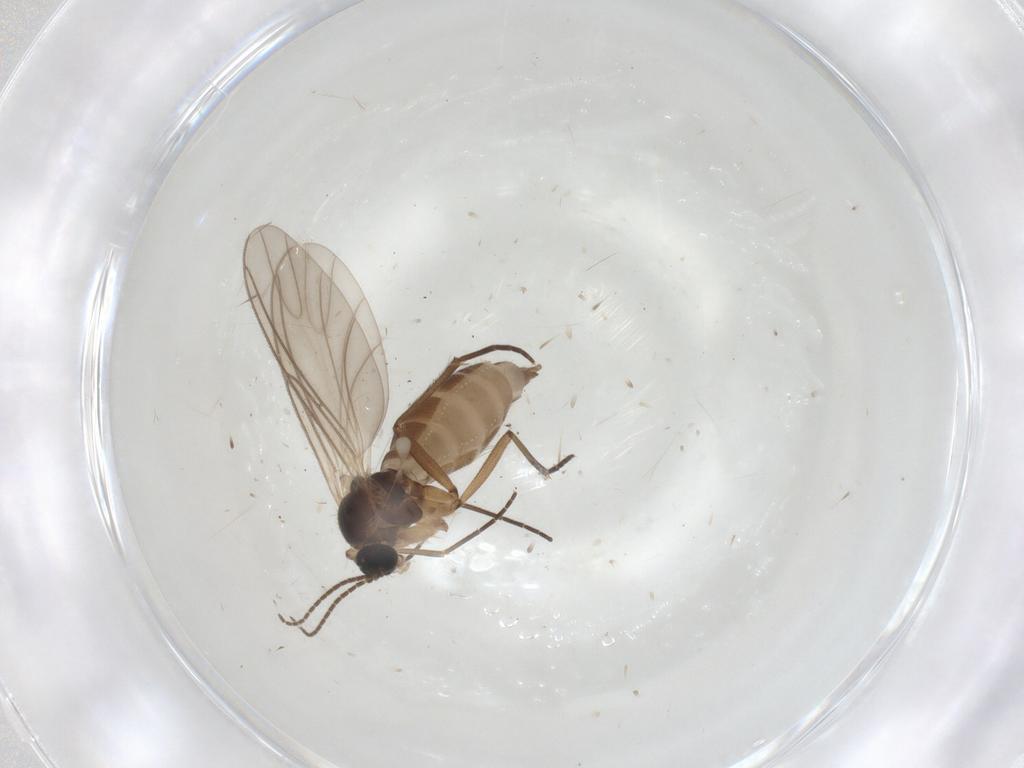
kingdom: Animalia
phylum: Arthropoda
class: Insecta
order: Diptera
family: Sciaridae
